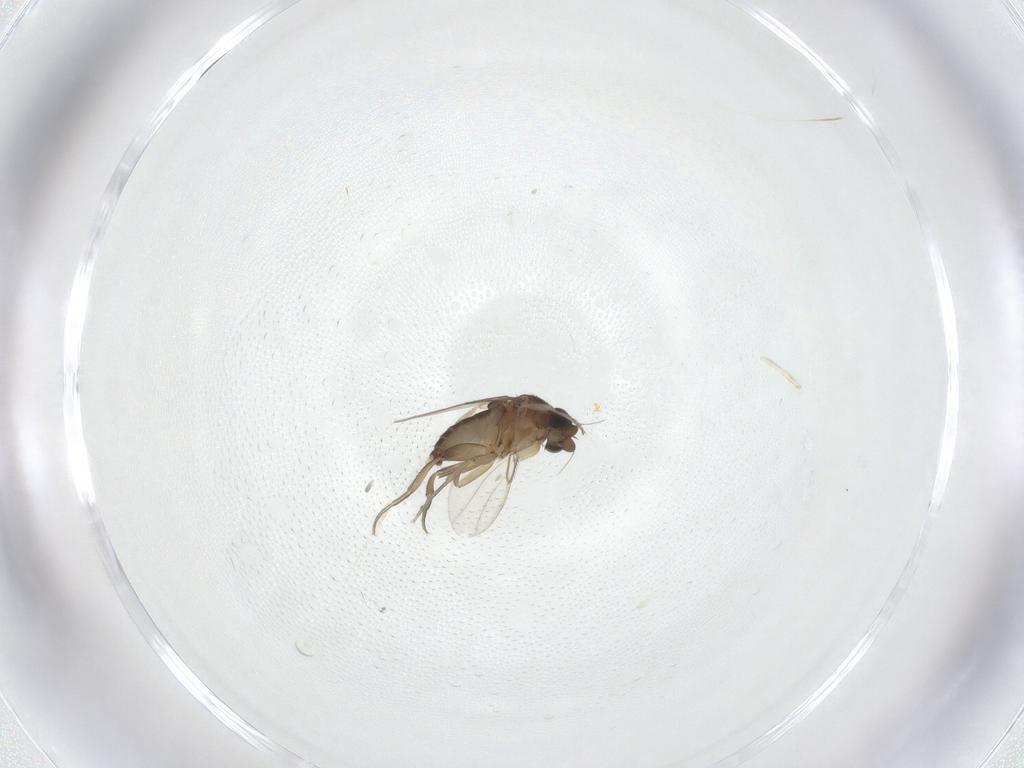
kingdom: Animalia
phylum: Arthropoda
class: Insecta
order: Diptera
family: Phoridae
